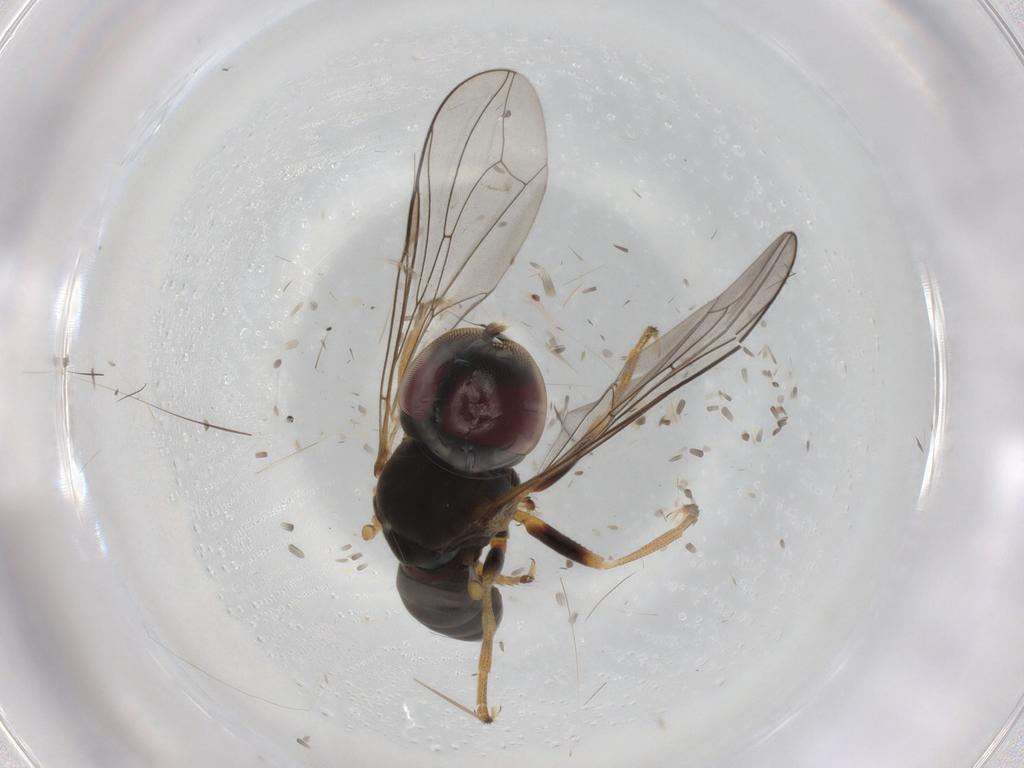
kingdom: Animalia
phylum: Arthropoda
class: Insecta
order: Diptera
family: Pipunculidae
